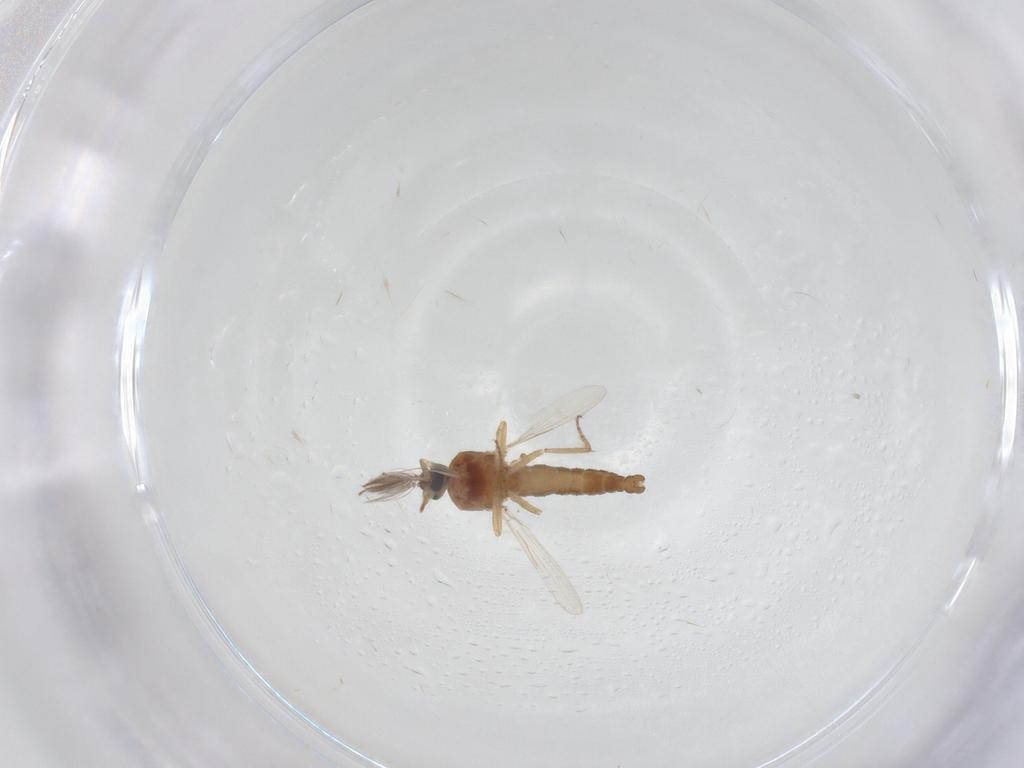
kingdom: Animalia
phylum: Arthropoda
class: Insecta
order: Diptera
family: Ceratopogonidae
